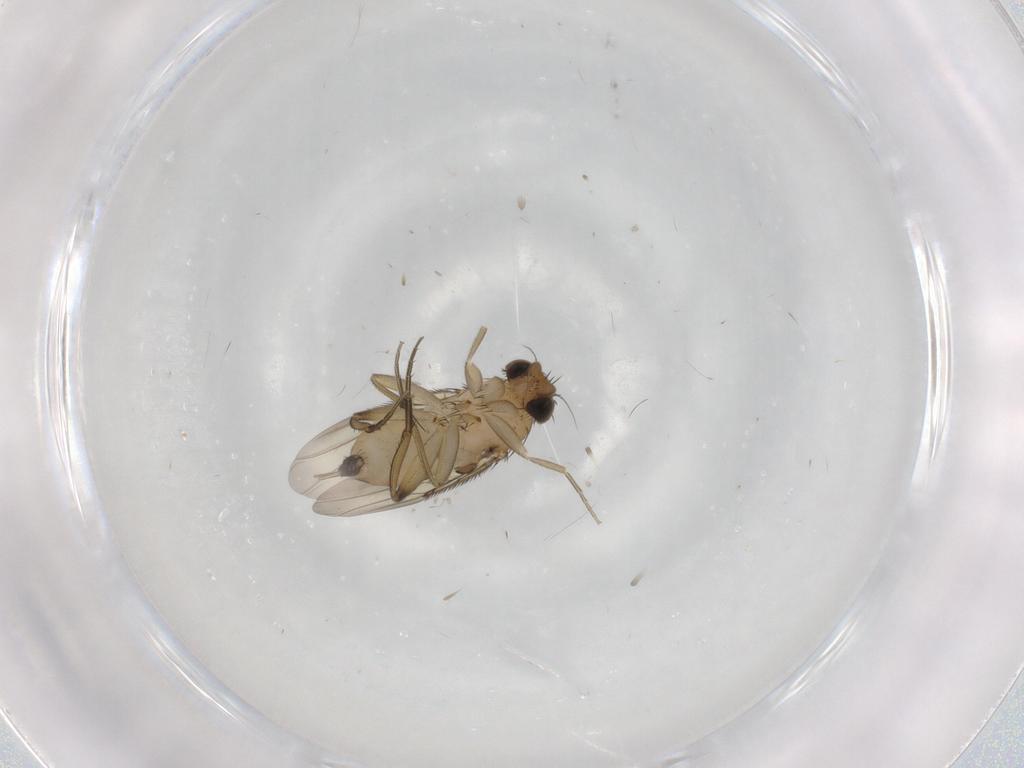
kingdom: Animalia
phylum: Arthropoda
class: Insecta
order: Diptera
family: Phoridae
